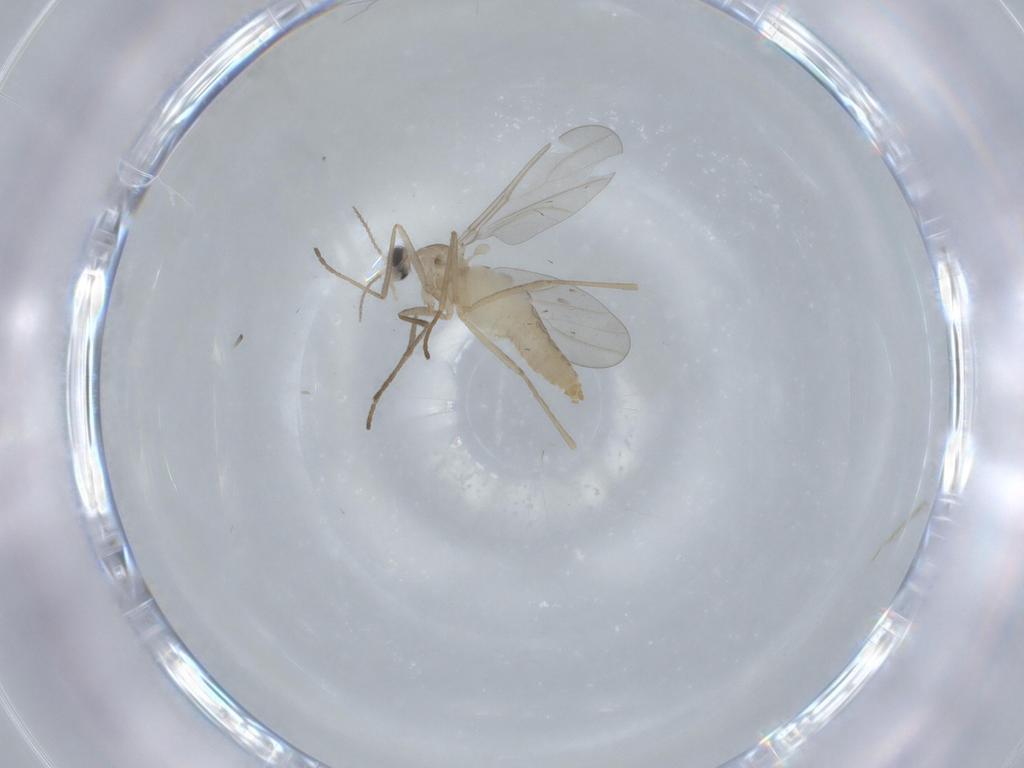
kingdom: Animalia
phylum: Arthropoda
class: Insecta
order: Diptera
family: Cecidomyiidae
